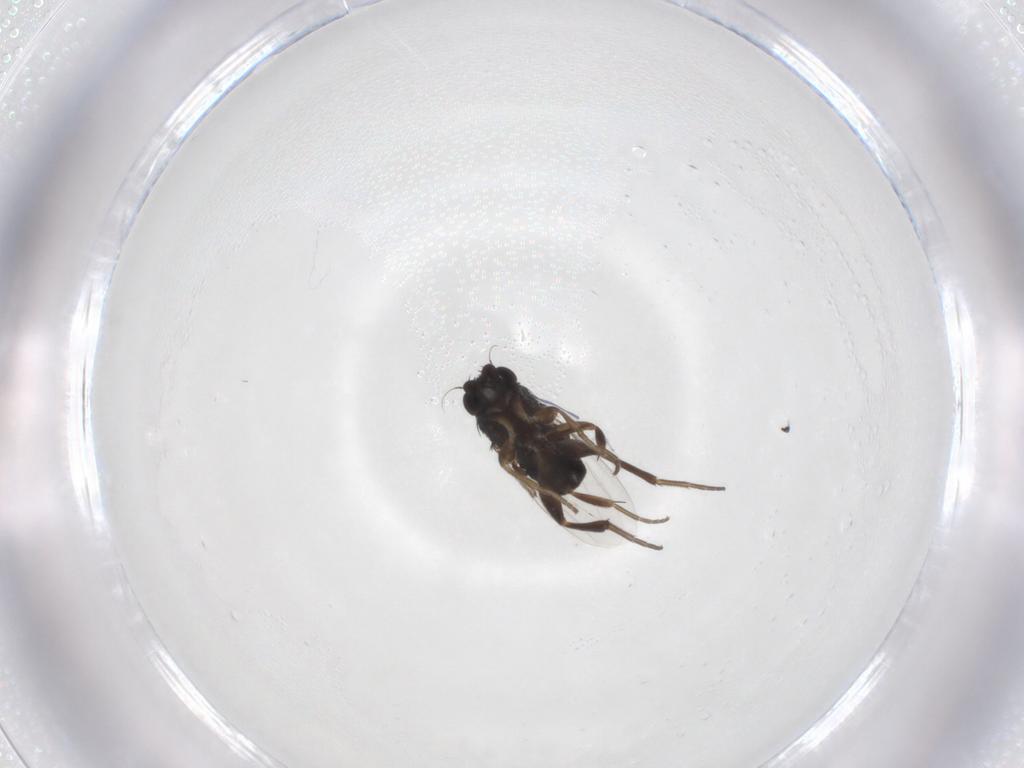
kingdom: Animalia
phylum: Arthropoda
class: Insecta
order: Diptera
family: Phoridae
